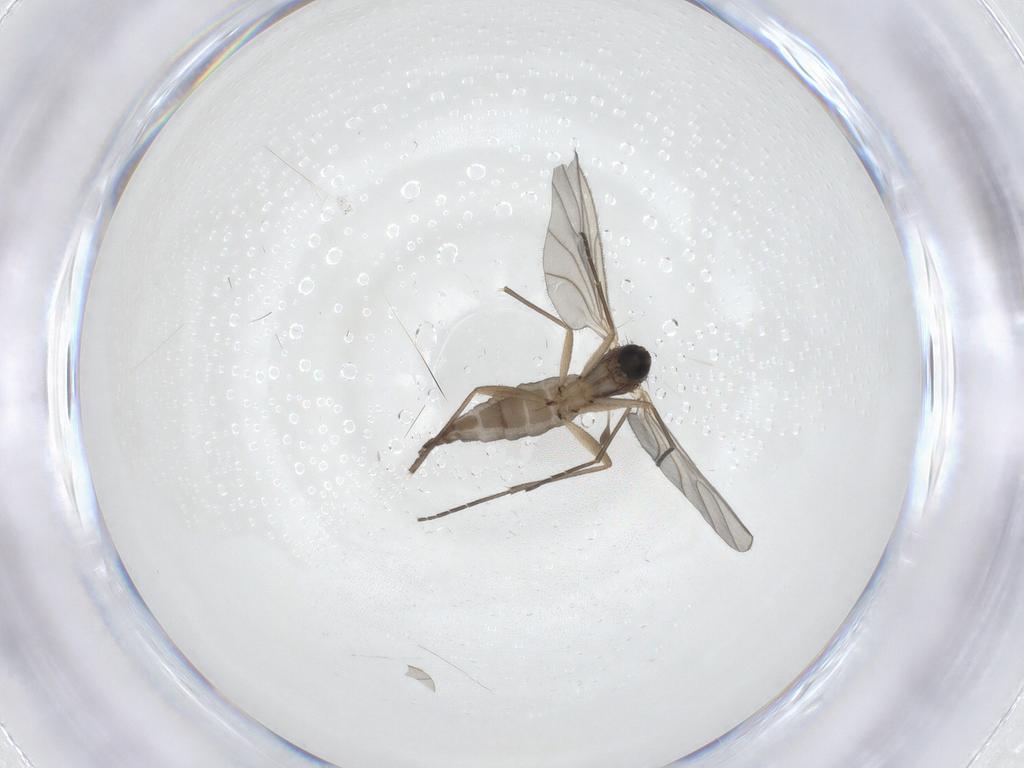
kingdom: Animalia
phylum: Arthropoda
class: Insecta
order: Diptera
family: Sciaridae
